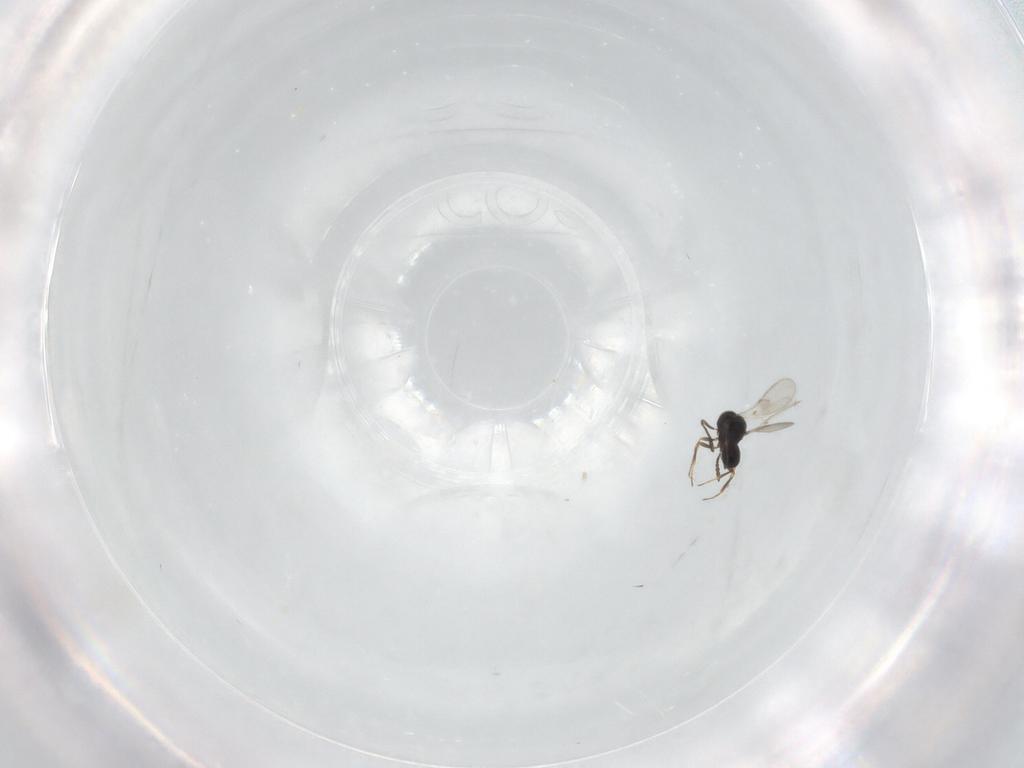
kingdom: Animalia
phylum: Arthropoda
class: Insecta
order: Hymenoptera
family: Scelionidae
